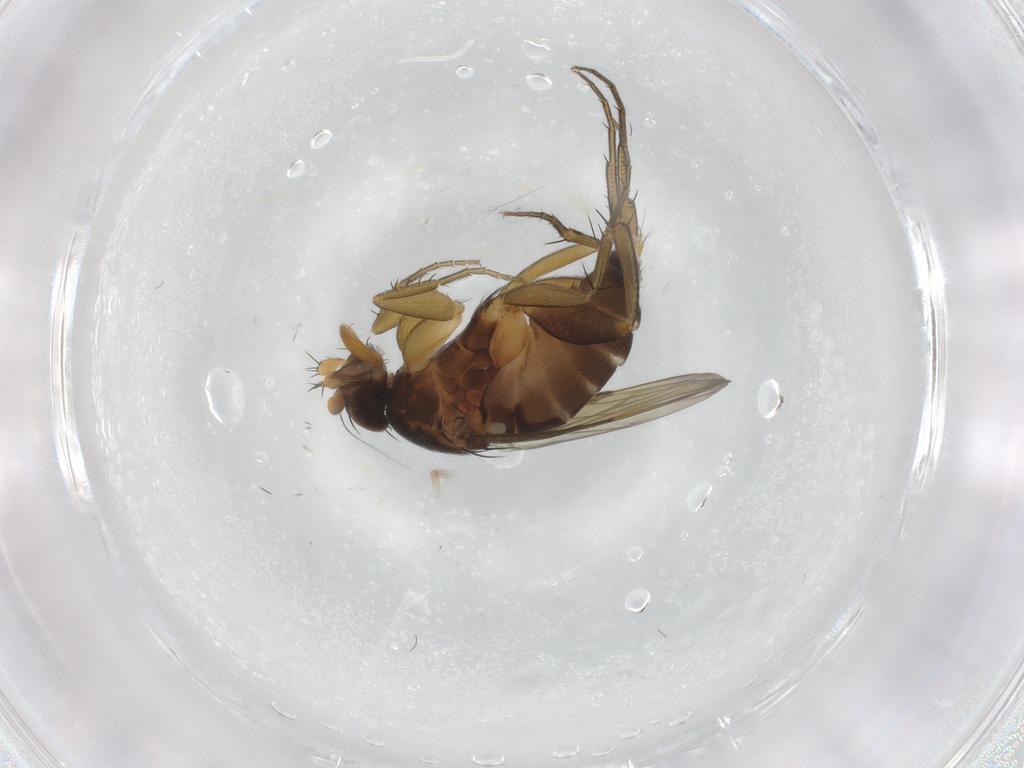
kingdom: Animalia
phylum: Arthropoda
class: Insecta
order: Diptera
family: Phoridae
